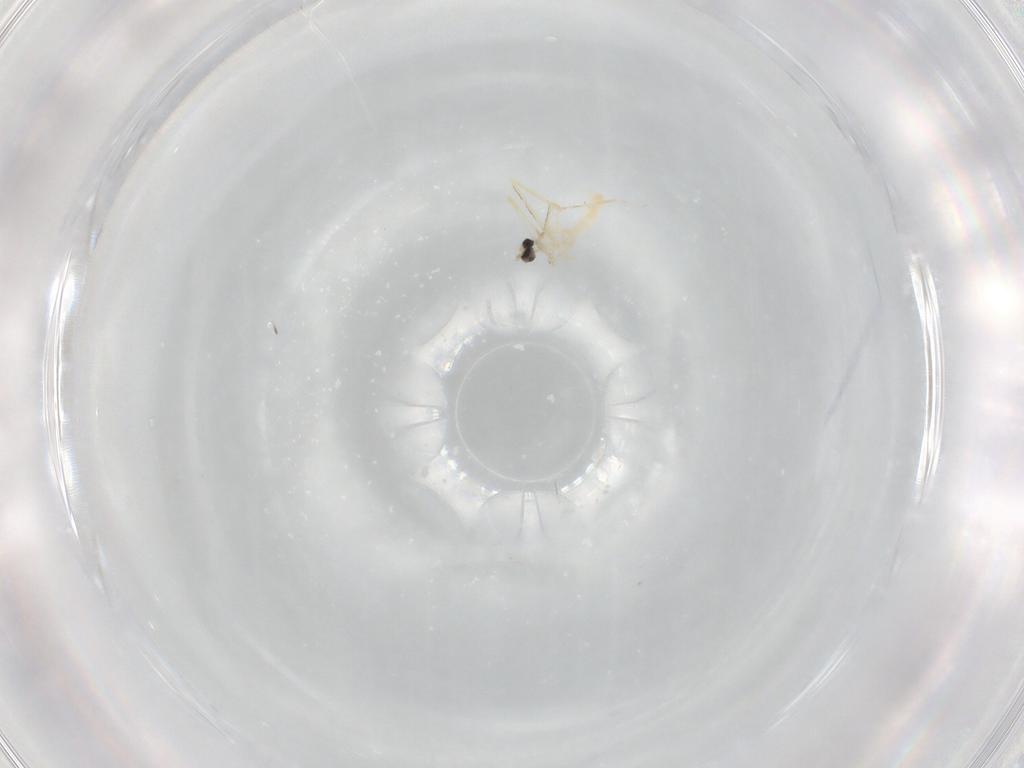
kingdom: Animalia
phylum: Arthropoda
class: Insecta
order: Diptera
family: Cecidomyiidae
